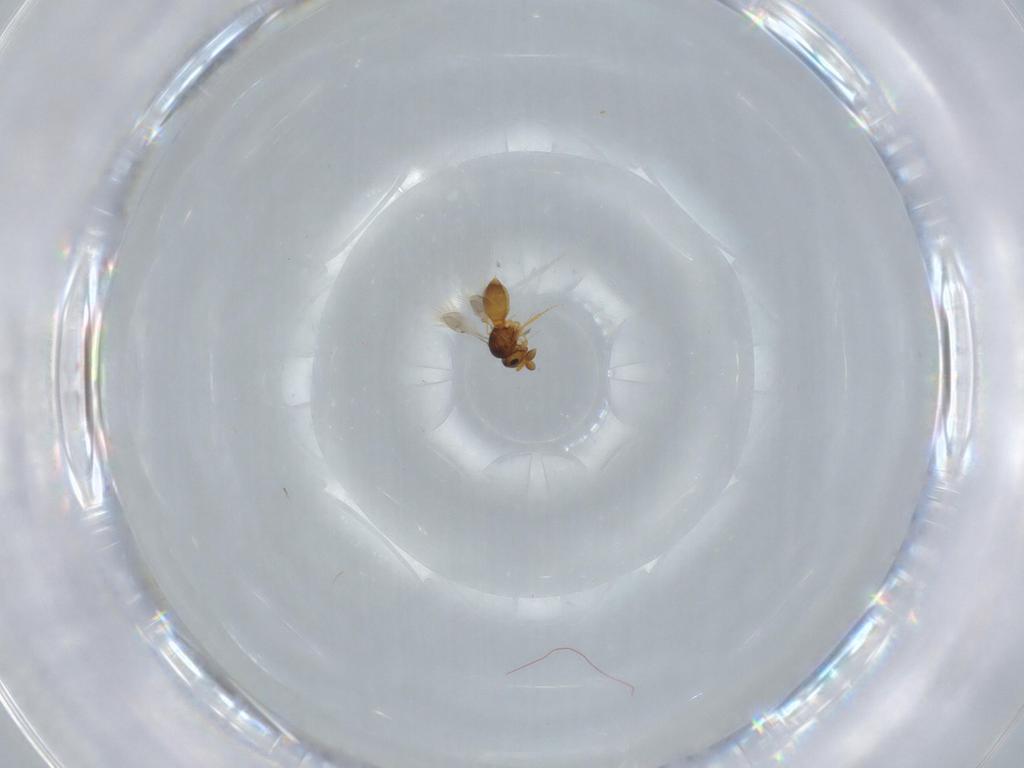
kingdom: Animalia
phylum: Arthropoda
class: Insecta
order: Hymenoptera
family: Scelionidae
